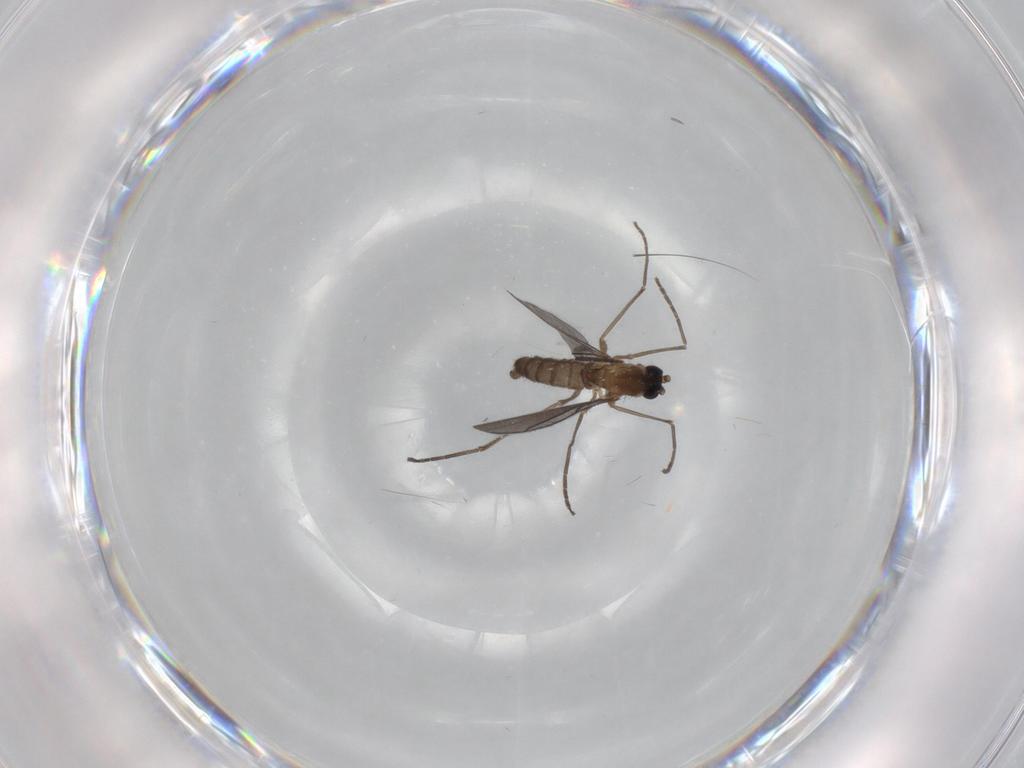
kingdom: Animalia
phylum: Arthropoda
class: Insecta
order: Diptera
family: Sciaridae
